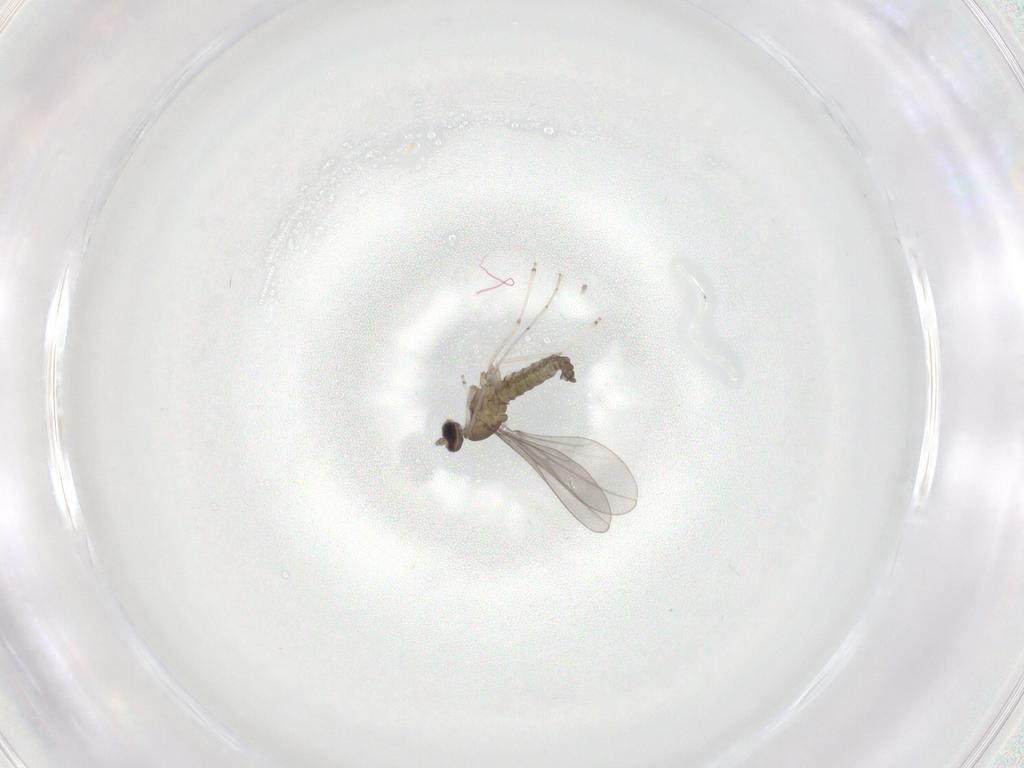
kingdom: Animalia
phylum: Arthropoda
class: Insecta
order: Diptera
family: Cecidomyiidae
